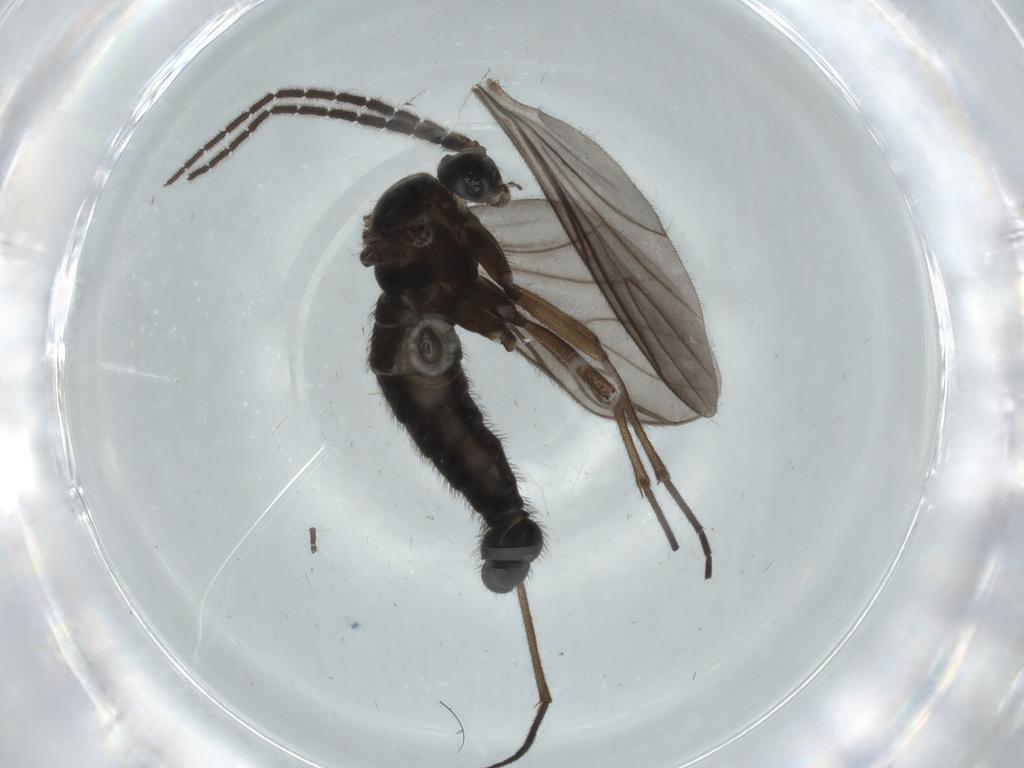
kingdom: Animalia
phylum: Arthropoda
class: Insecta
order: Diptera
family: Sciaridae
